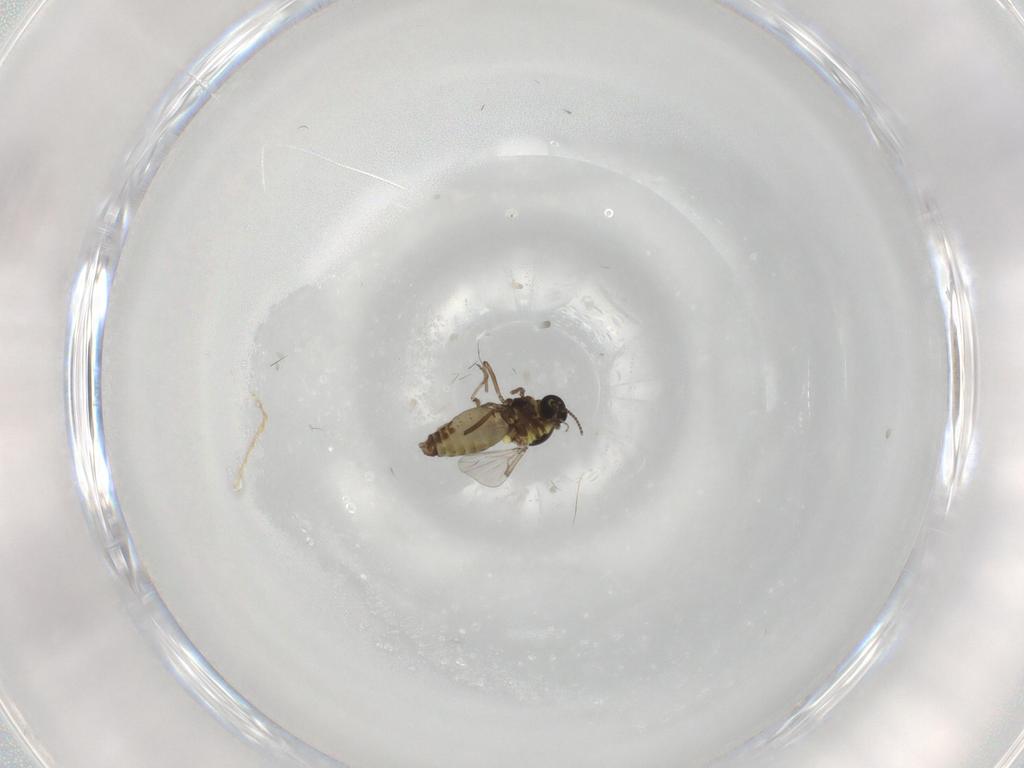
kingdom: Animalia
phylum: Arthropoda
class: Insecta
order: Diptera
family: Ceratopogonidae
